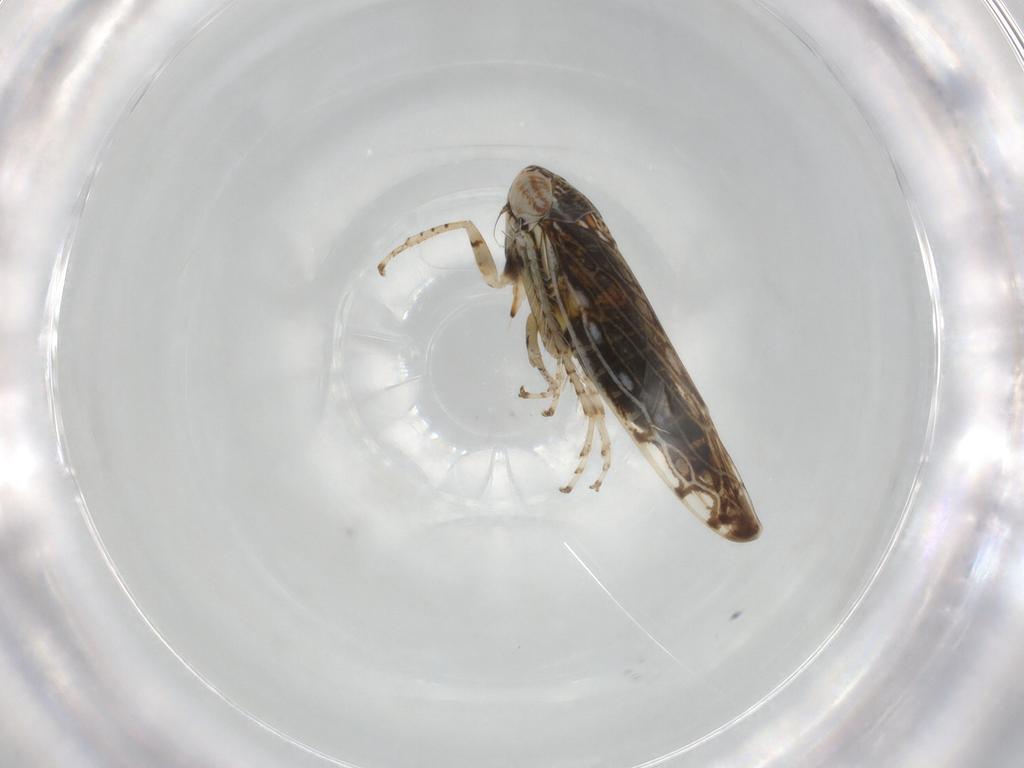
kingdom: Animalia
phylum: Arthropoda
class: Insecta
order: Hemiptera
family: Cicadellidae
